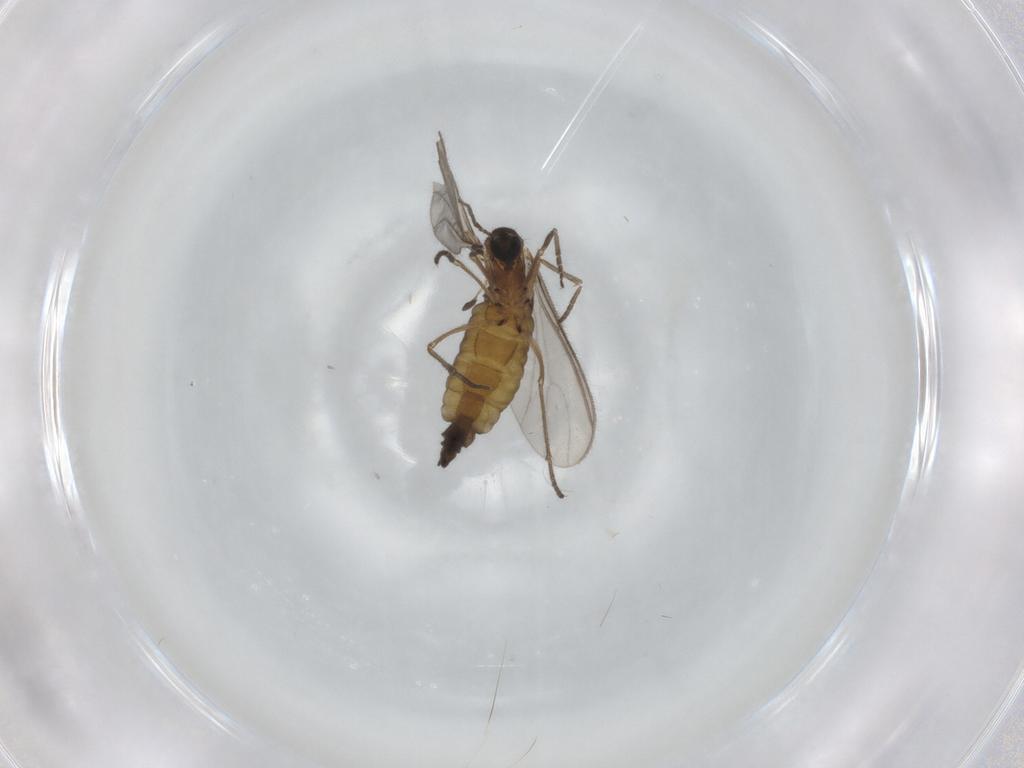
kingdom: Animalia
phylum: Arthropoda
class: Insecta
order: Diptera
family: Sciaridae
